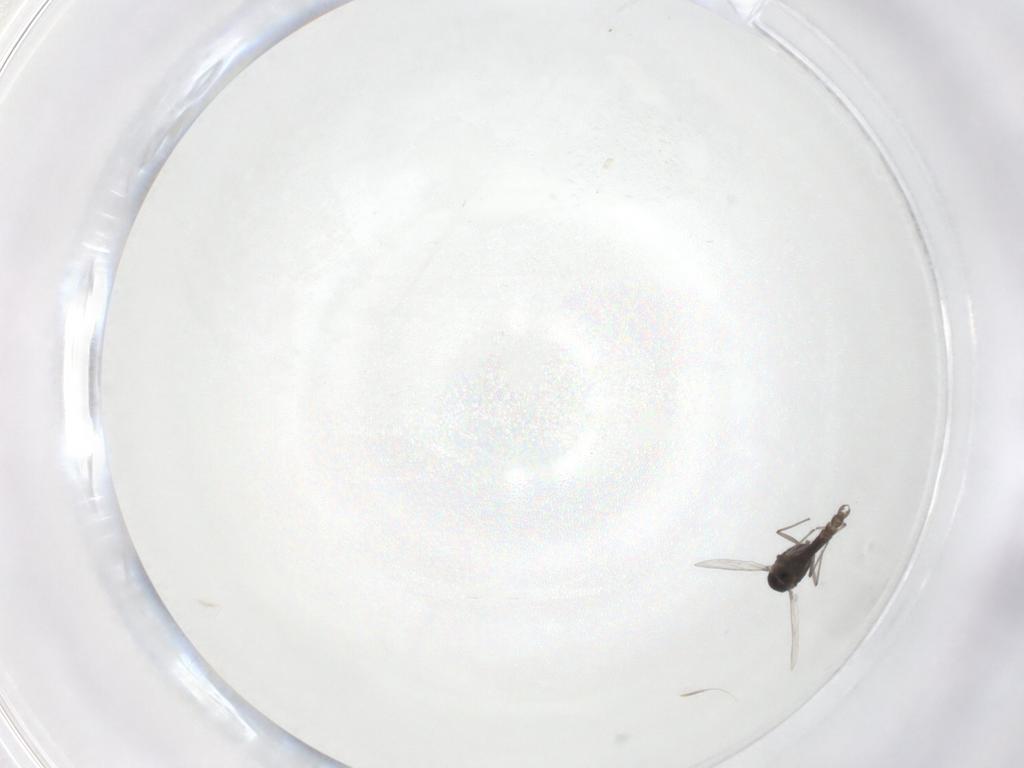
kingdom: Animalia
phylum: Arthropoda
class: Insecta
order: Diptera
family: Chironomidae
